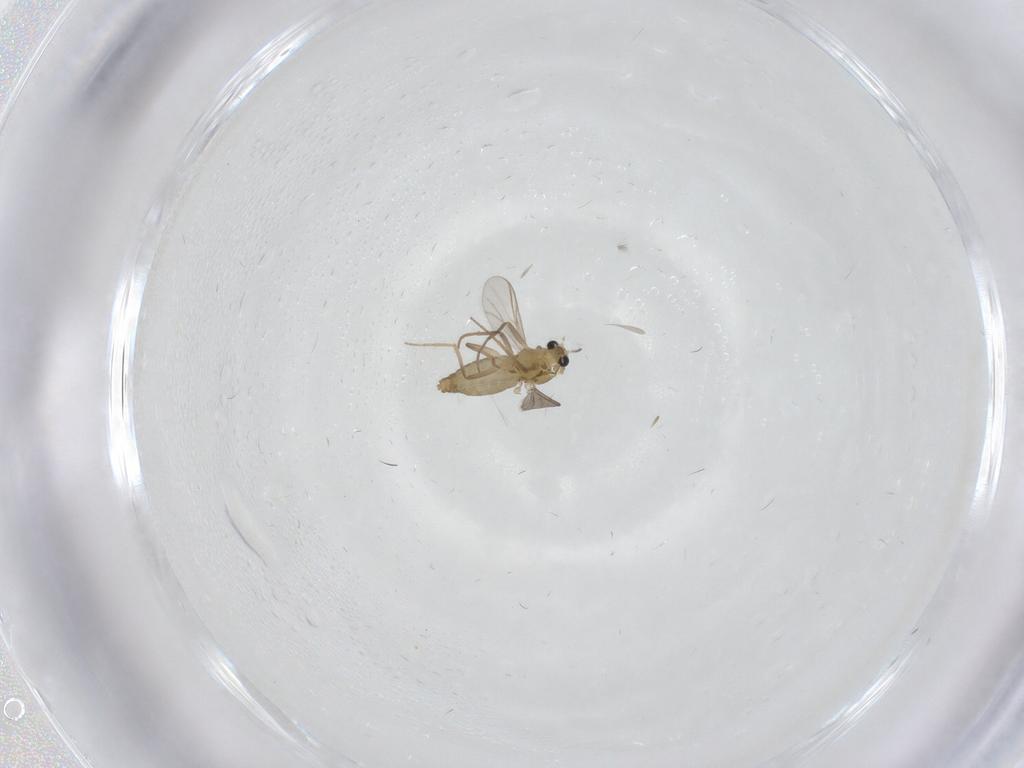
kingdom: Animalia
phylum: Arthropoda
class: Insecta
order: Diptera
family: Chironomidae
